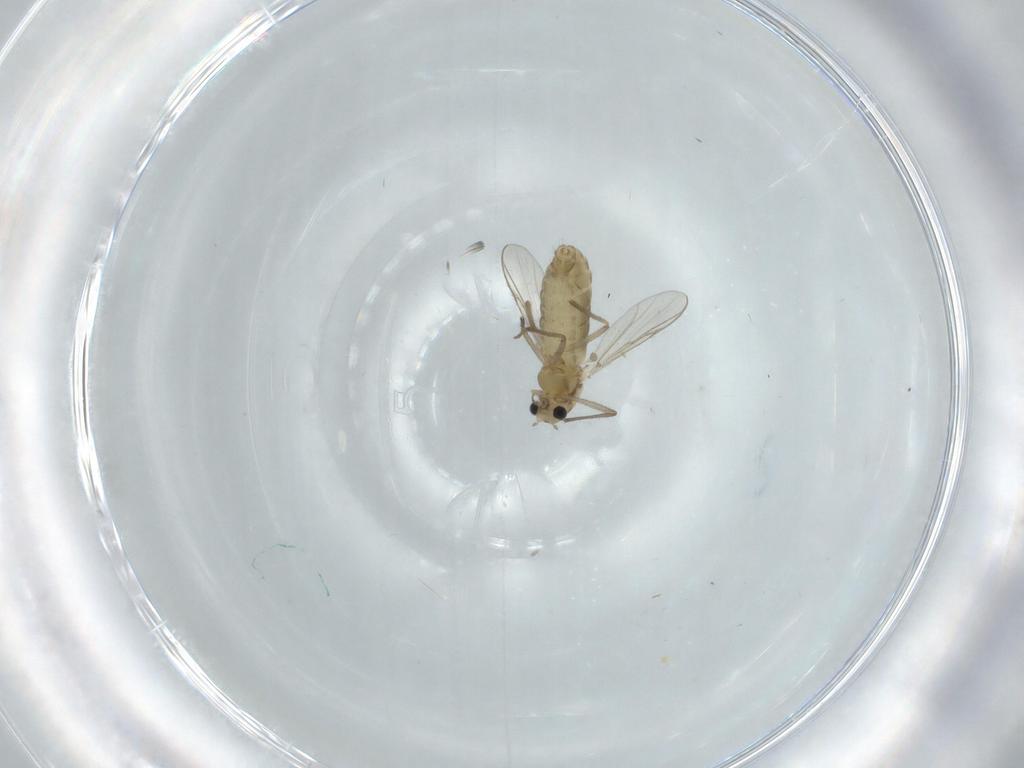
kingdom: Animalia
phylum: Arthropoda
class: Insecta
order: Diptera
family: Chironomidae
